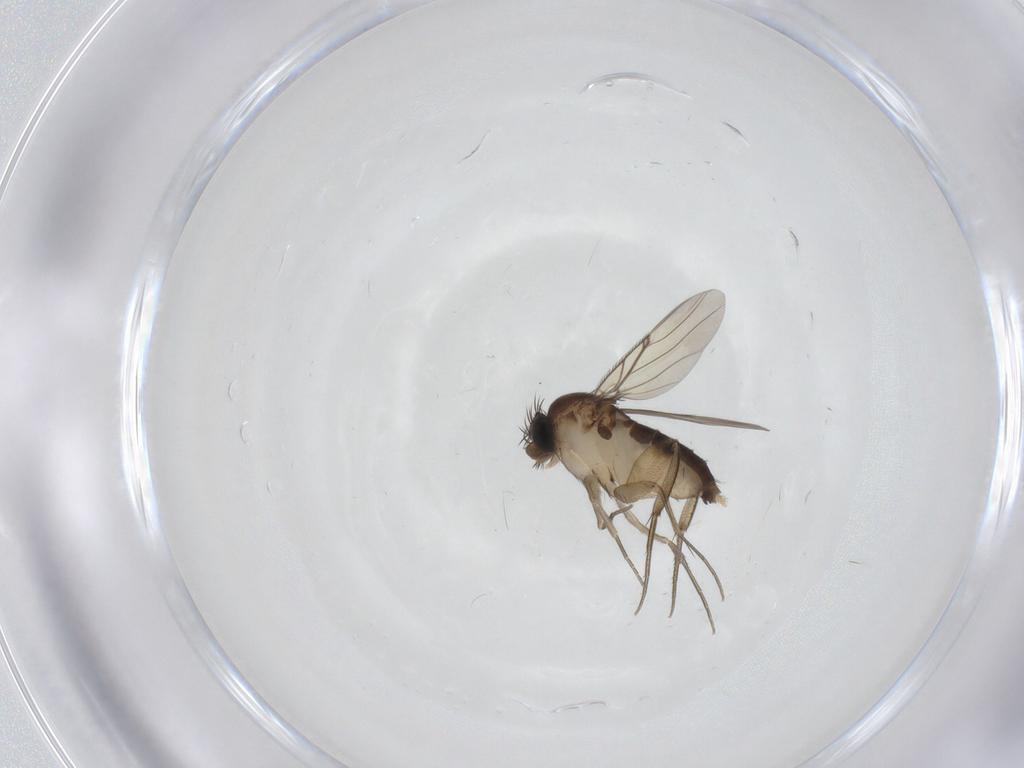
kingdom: Animalia
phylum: Arthropoda
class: Insecta
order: Diptera
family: Phoridae
